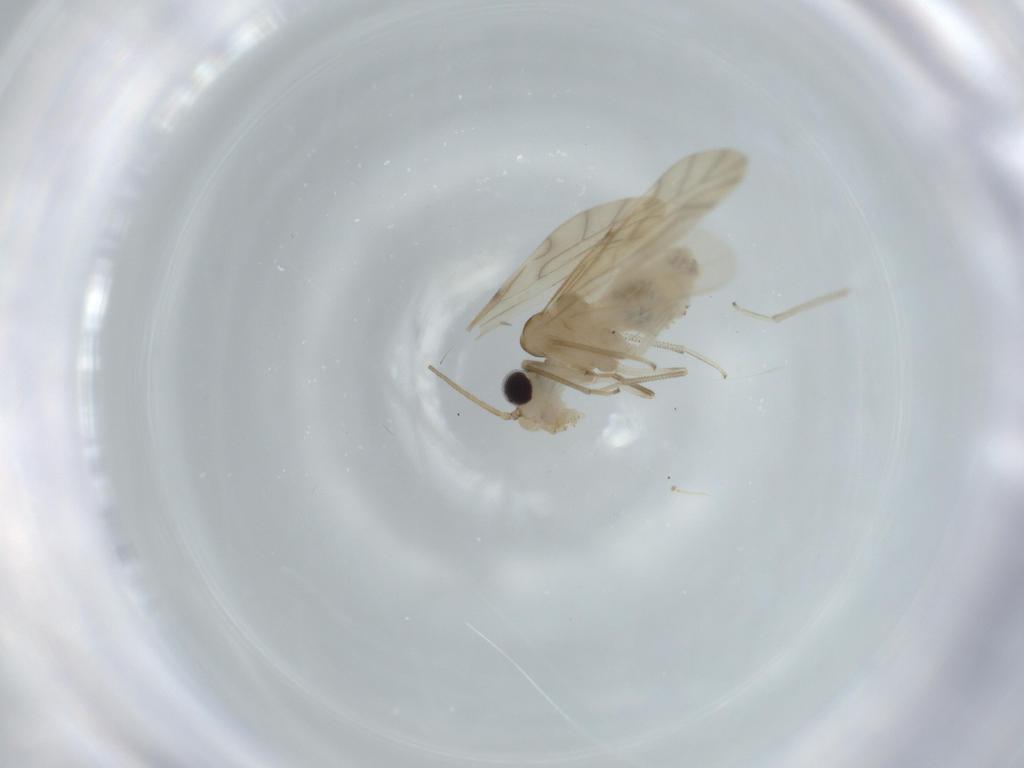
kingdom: Animalia
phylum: Arthropoda
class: Insecta
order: Psocodea
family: Caeciliusidae
